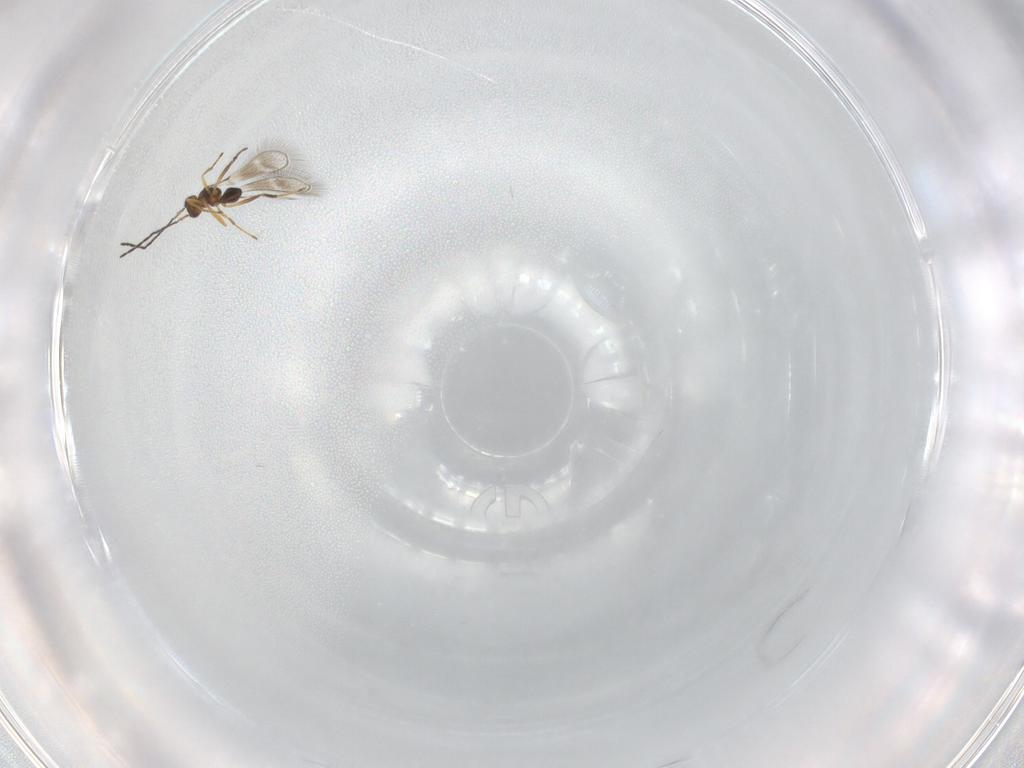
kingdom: Animalia
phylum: Arthropoda
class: Insecta
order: Hymenoptera
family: Mymaridae
